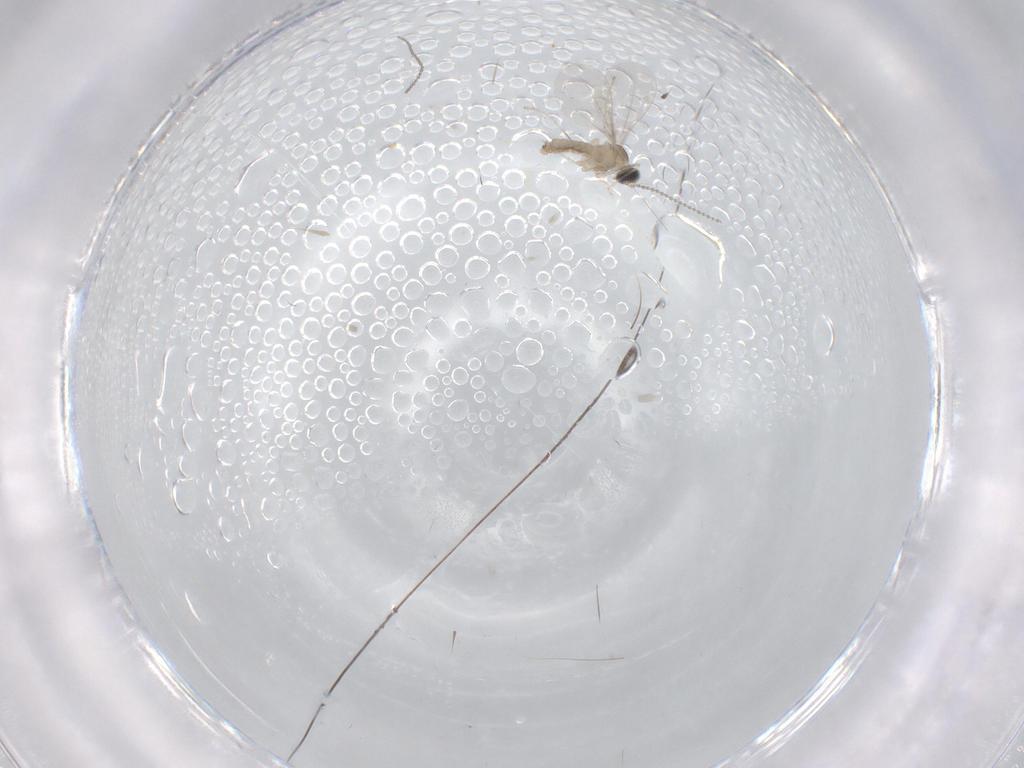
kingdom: Animalia
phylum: Arthropoda
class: Insecta
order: Diptera
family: Cecidomyiidae
